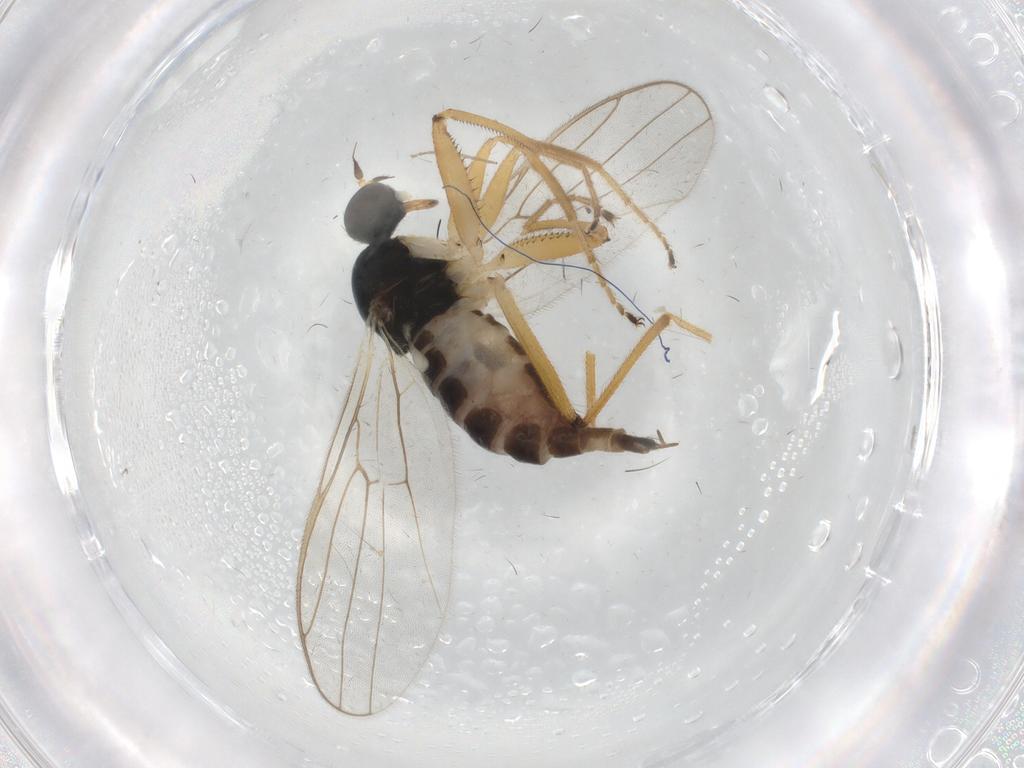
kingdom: Animalia
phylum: Arthropoda
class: Insecta
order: Diptera
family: Hybotidae
